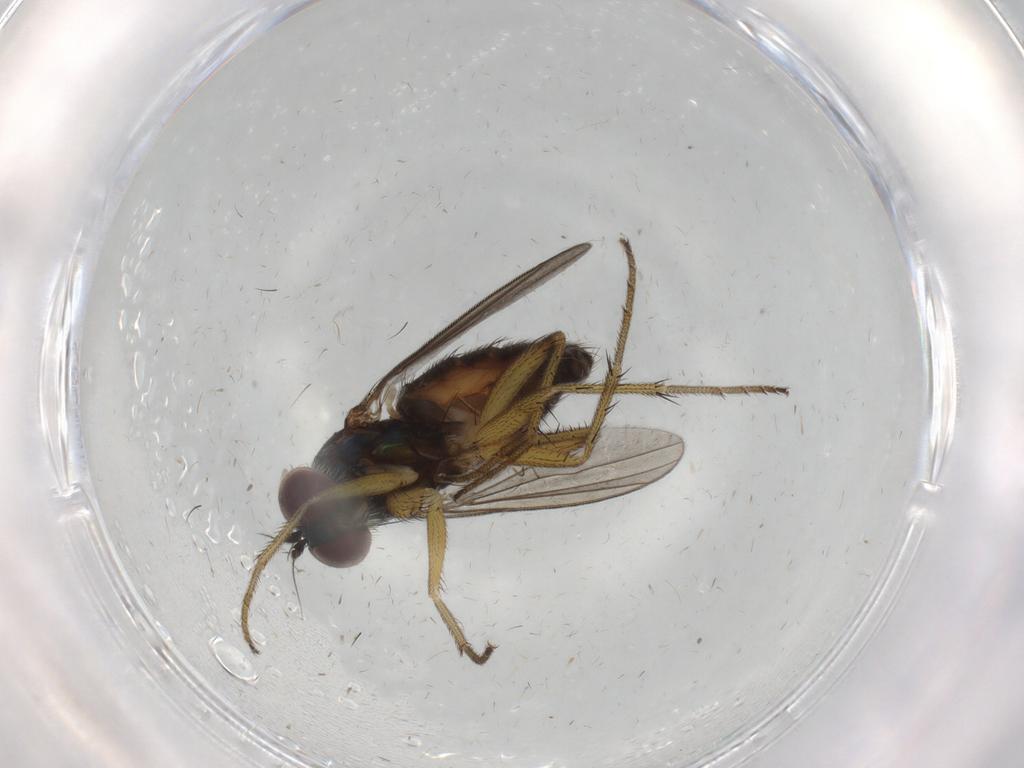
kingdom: Animalia
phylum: Arthropoda
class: Insecta
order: Diptera
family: Dolichopodidae
